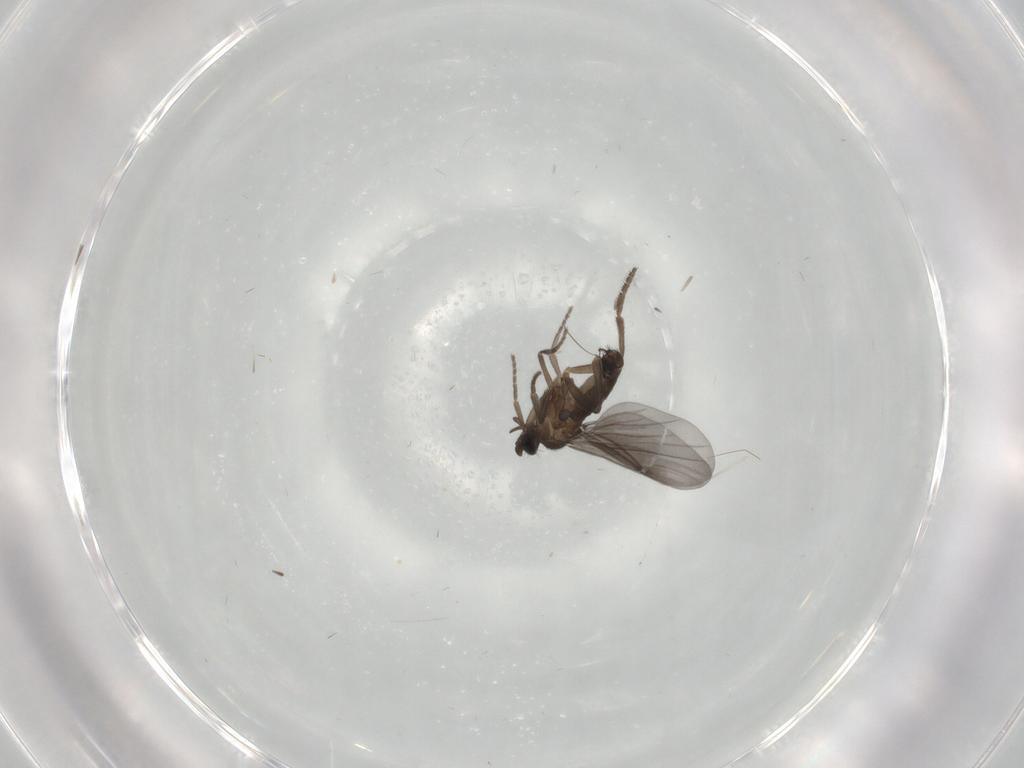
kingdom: Animalia
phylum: Arthropoda
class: Insecta
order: Diptera
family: Phoridae
